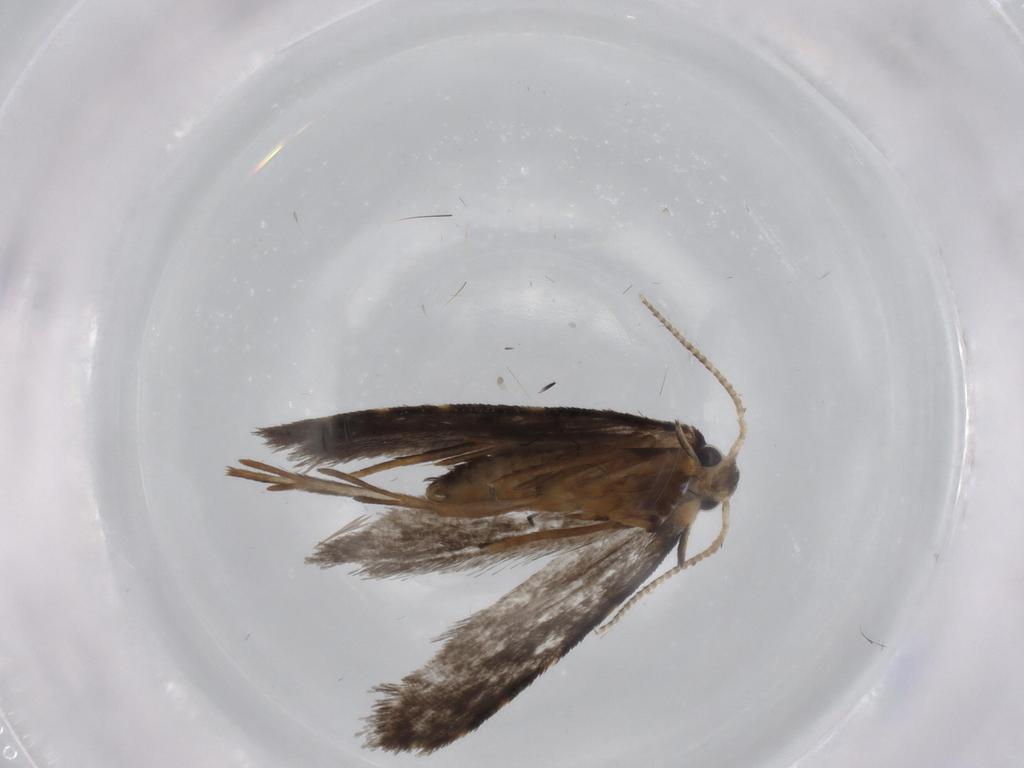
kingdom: Animalia
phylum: Arthropoda
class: Insecta
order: Lepidoptera
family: Psychidae
